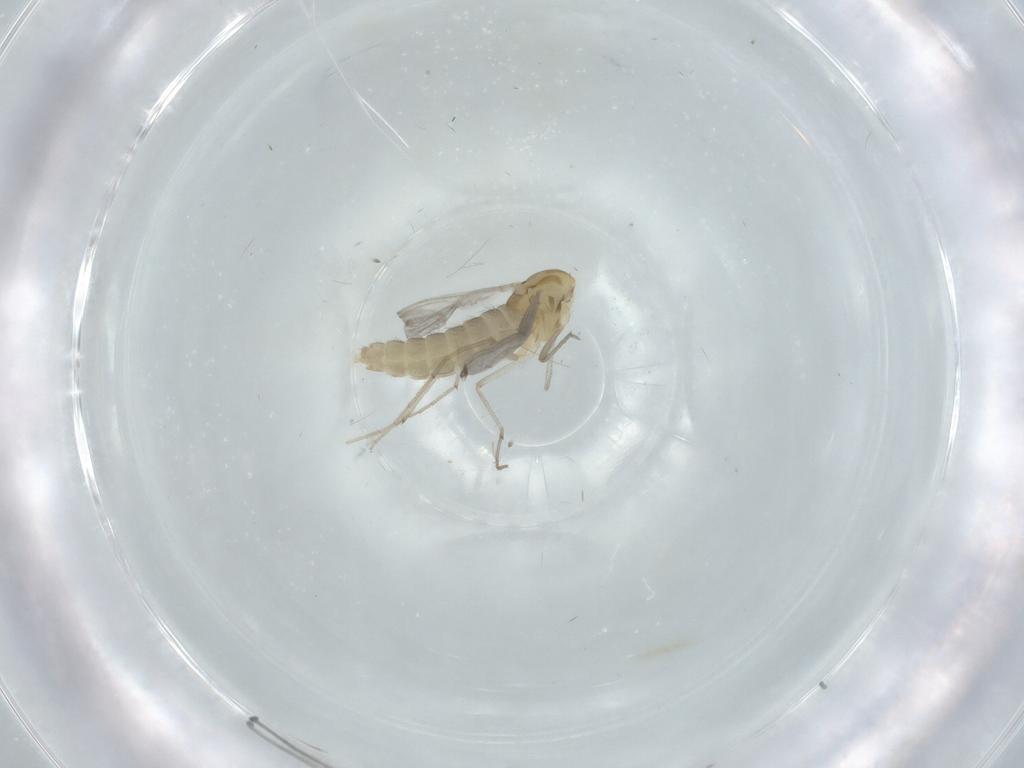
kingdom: Animalia
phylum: Arthropoda
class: Insecta
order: Diptera
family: Chironomidae
